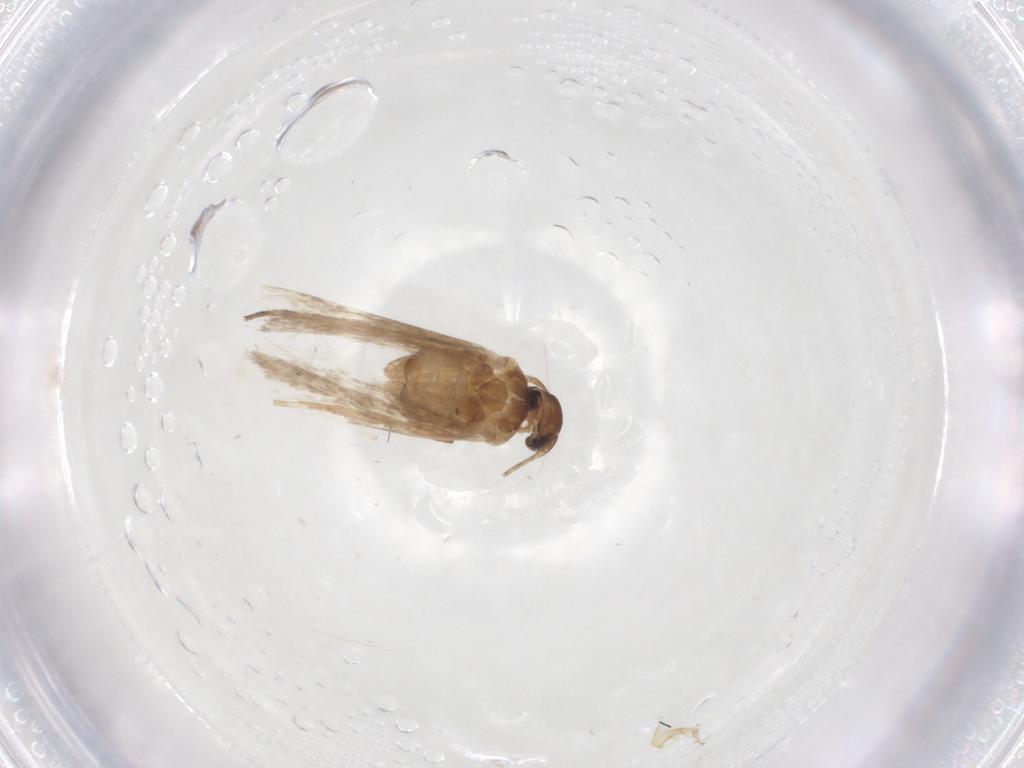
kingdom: Animalia
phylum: Arthropoda
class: Insecta
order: Lepidoptera
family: Gelechiidae
